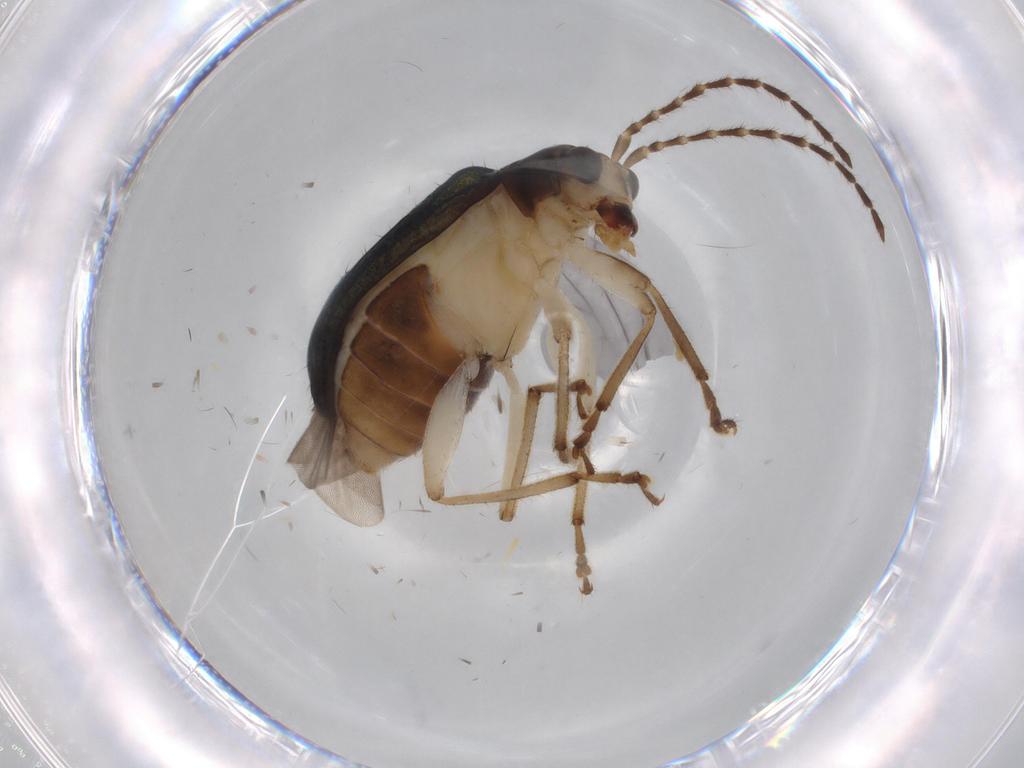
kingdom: Animalia
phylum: Arthropoda
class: Insecta
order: Coleoptera
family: Chrysomelidae
